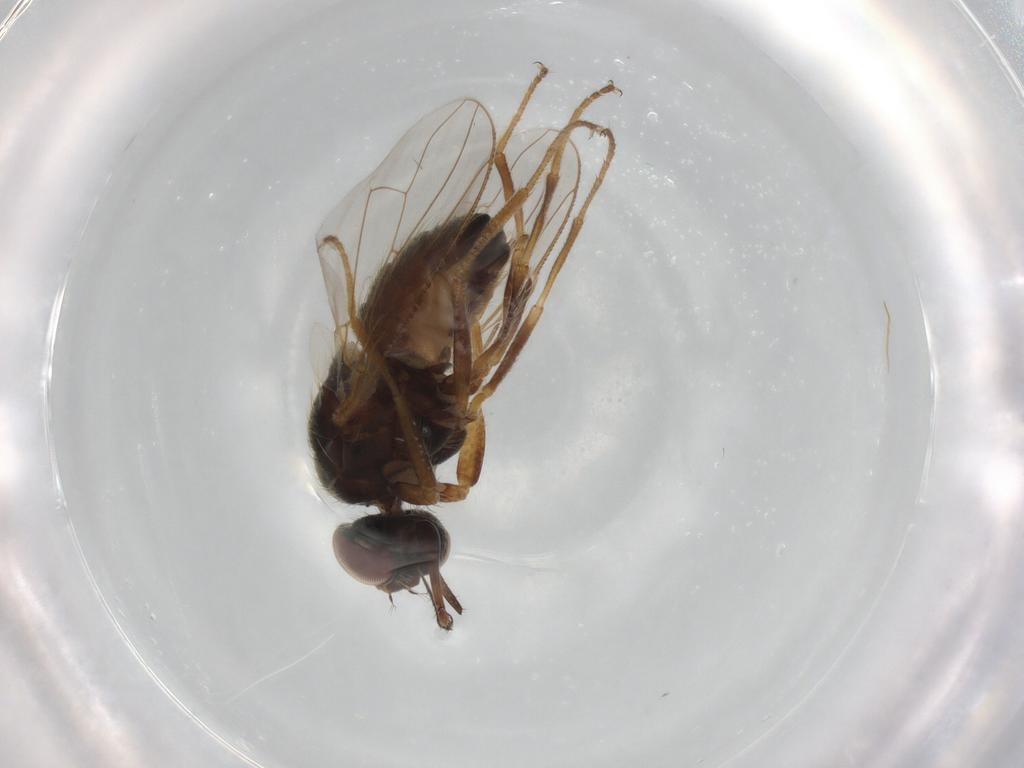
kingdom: Animalia
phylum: Arthropoda
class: Insecta
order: Diptera
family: Muscidae
